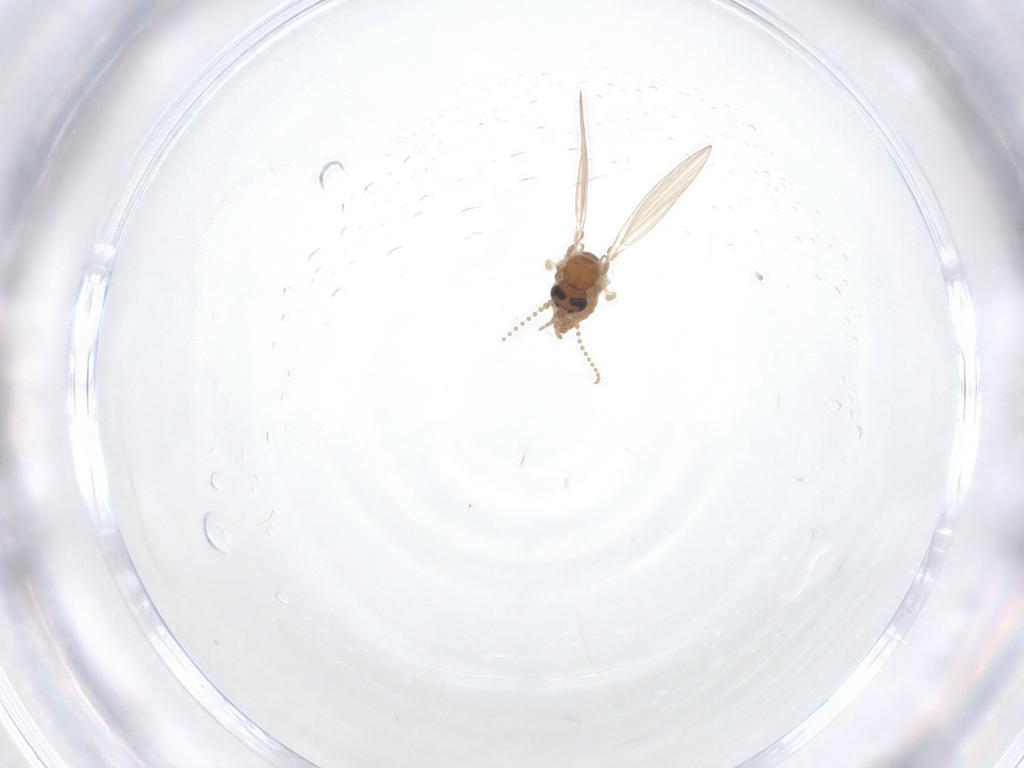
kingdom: Animalia
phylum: Arthropoda
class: Insecta
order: Diptera
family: Psychodidae
